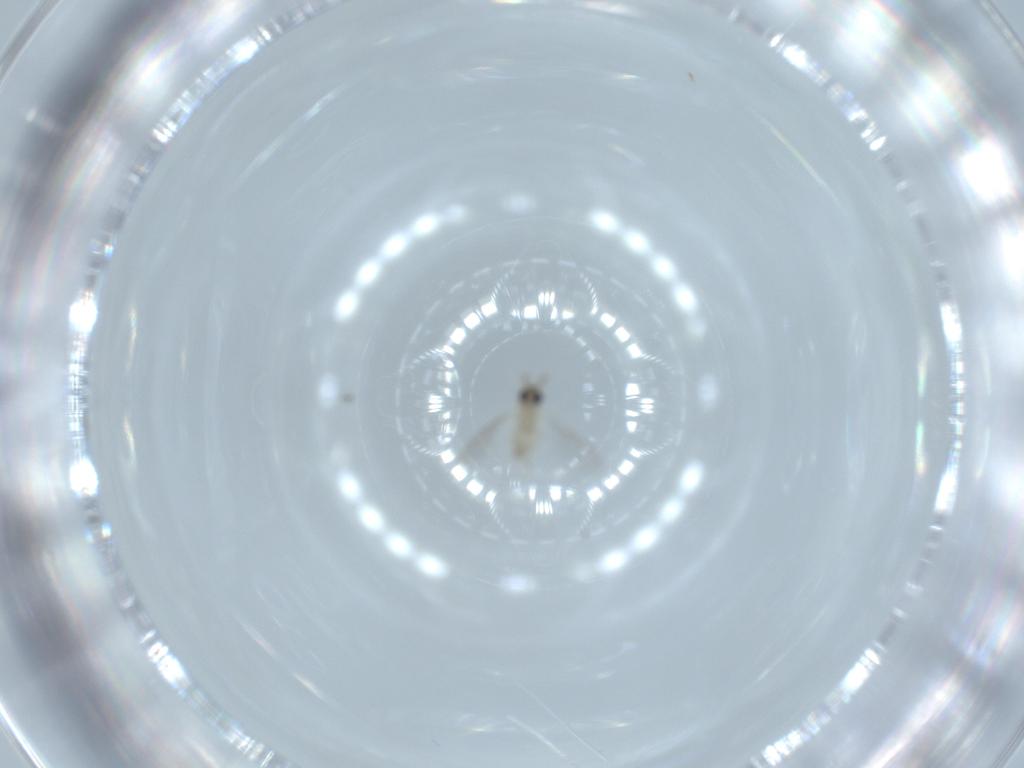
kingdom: Animalia
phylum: Arthropoda
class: Insecta
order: Diptera
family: Cecidomyiidae
